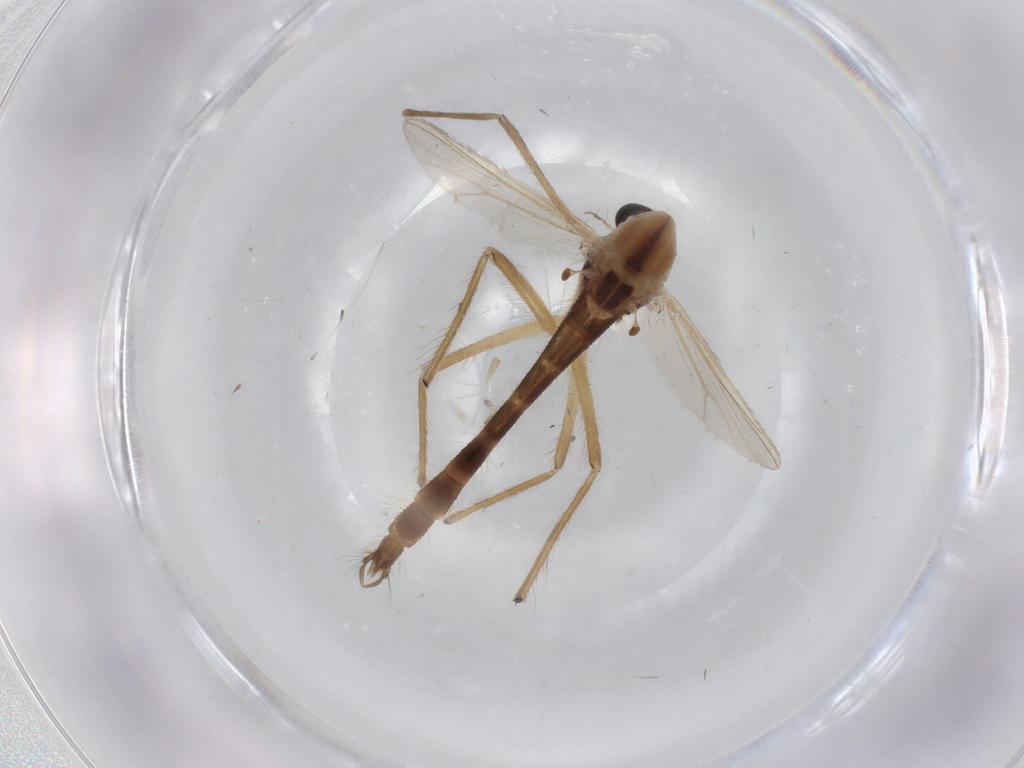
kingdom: Animalia
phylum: Arthropoda
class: Insecta
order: Diptera
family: Chironomidae
